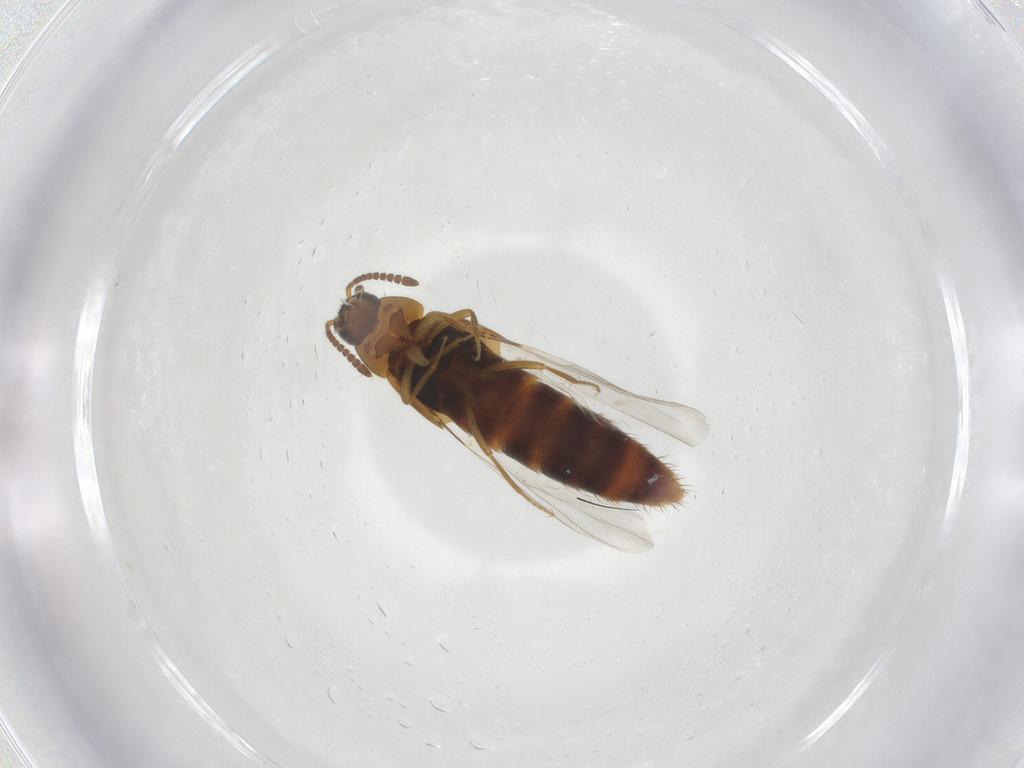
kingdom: Animalia
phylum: Arthropoda
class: Insecta
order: Coleoptera
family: Staphylinidae
